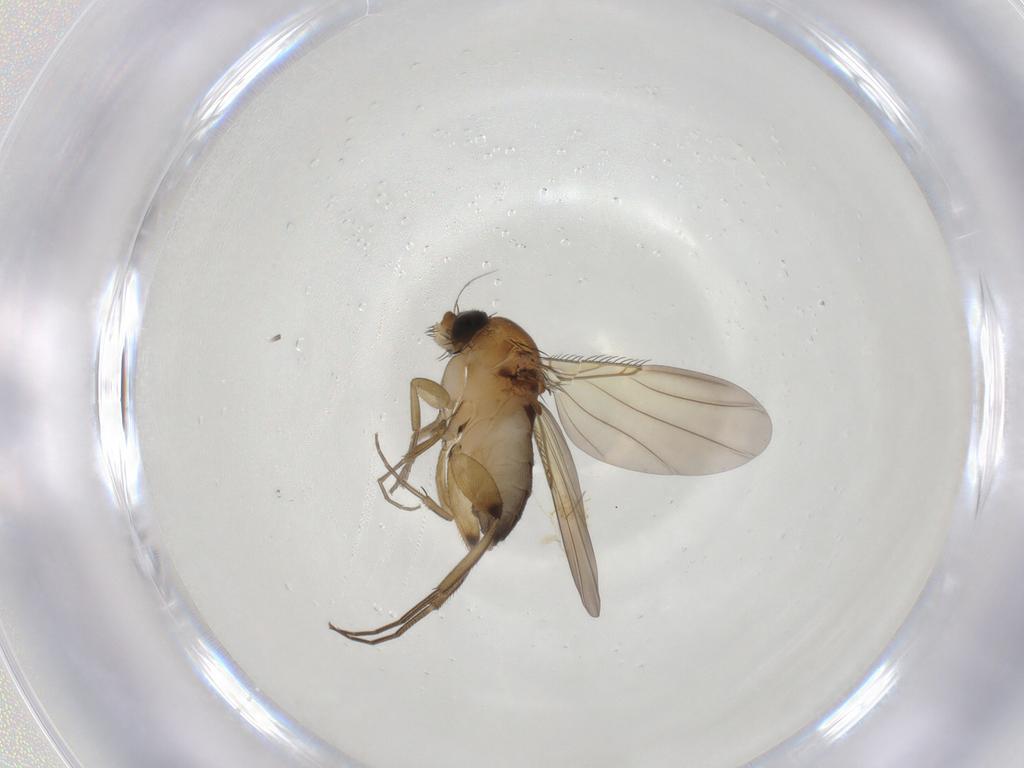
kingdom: Animalia
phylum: Arthropoda
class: Insecta
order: Diptera
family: Phoridae
